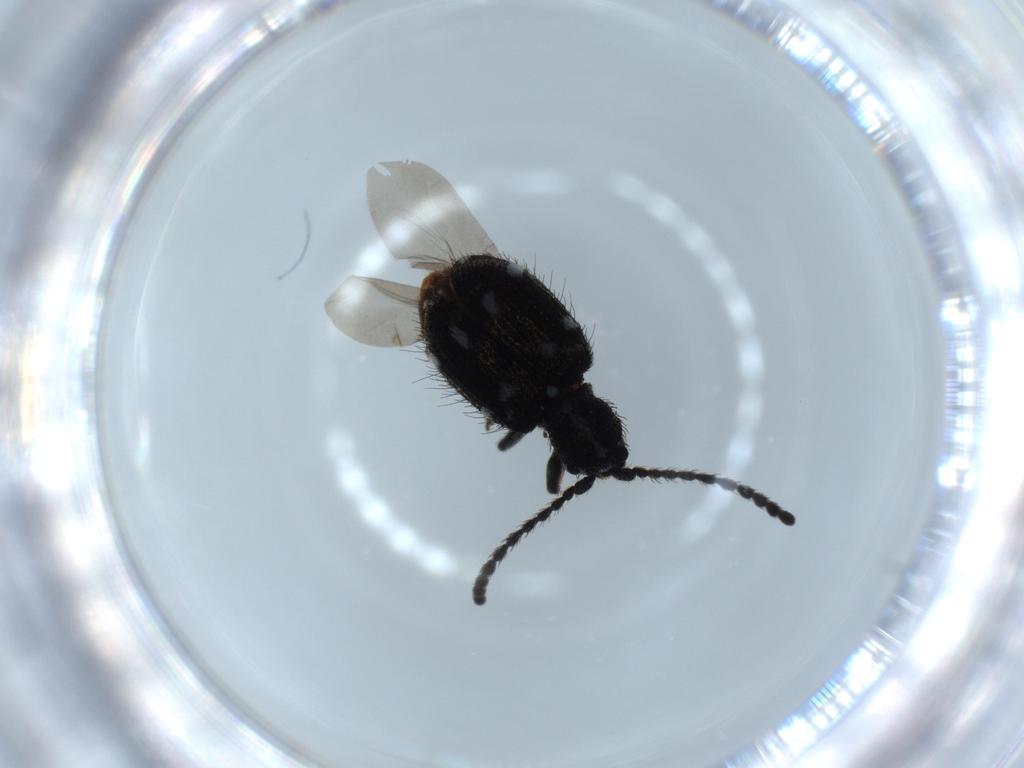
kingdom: Animalia
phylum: Arthropoda
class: Insecta
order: Coleoptera
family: Ptinidae
